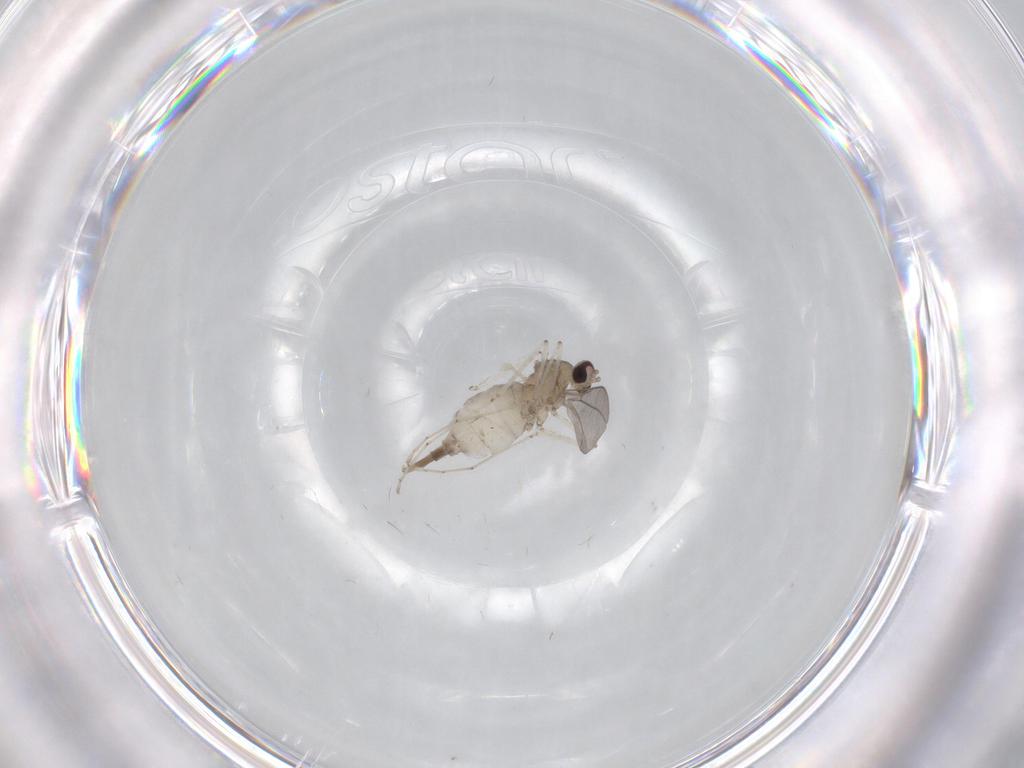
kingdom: Animalia
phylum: Arthropoda
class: Insecta
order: Diptera
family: Cecidomyiidae
